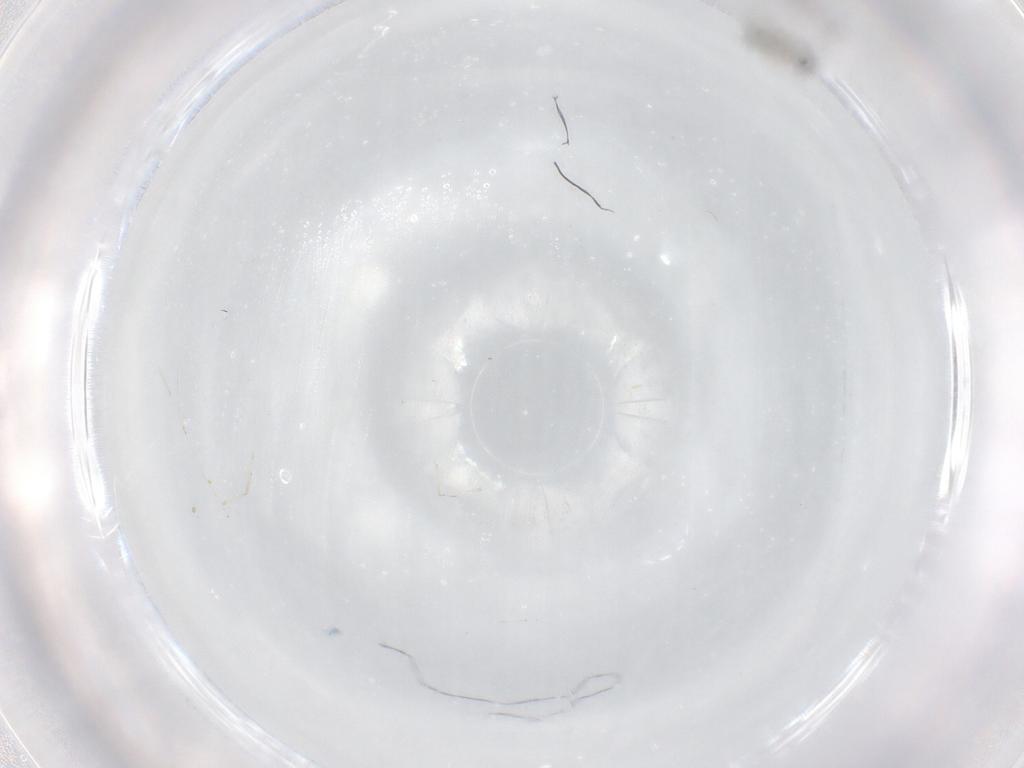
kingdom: Animalia
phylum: Arthropoda
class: Insecta
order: Diptera
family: Cecidomyiidae
